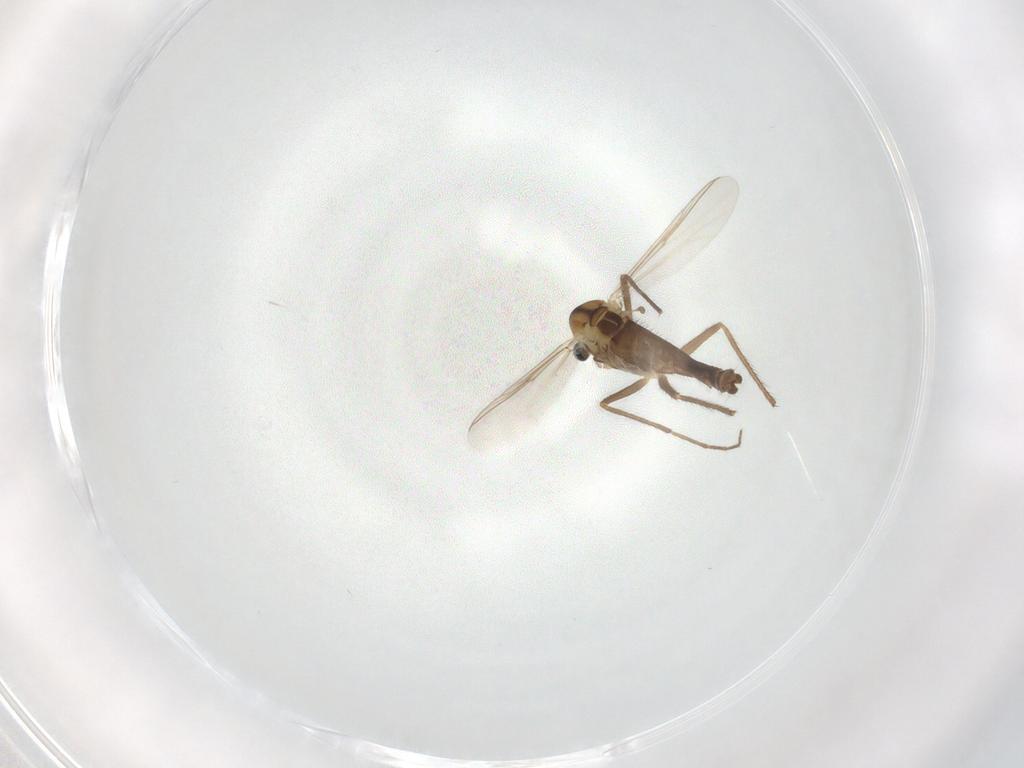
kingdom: Animalia
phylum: Arthropoda
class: Insecta
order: Diptera
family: Chironomidae
